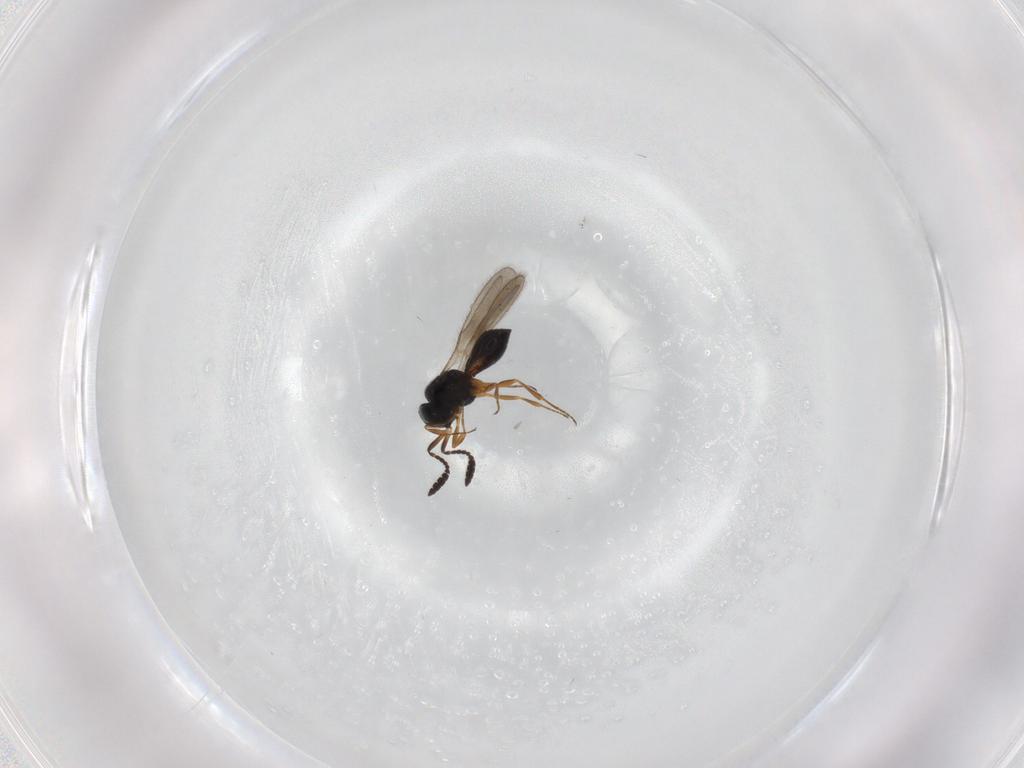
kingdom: Animalia
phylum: Arthropoda
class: Insecta
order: Hymenoptera
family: Scelionidae
